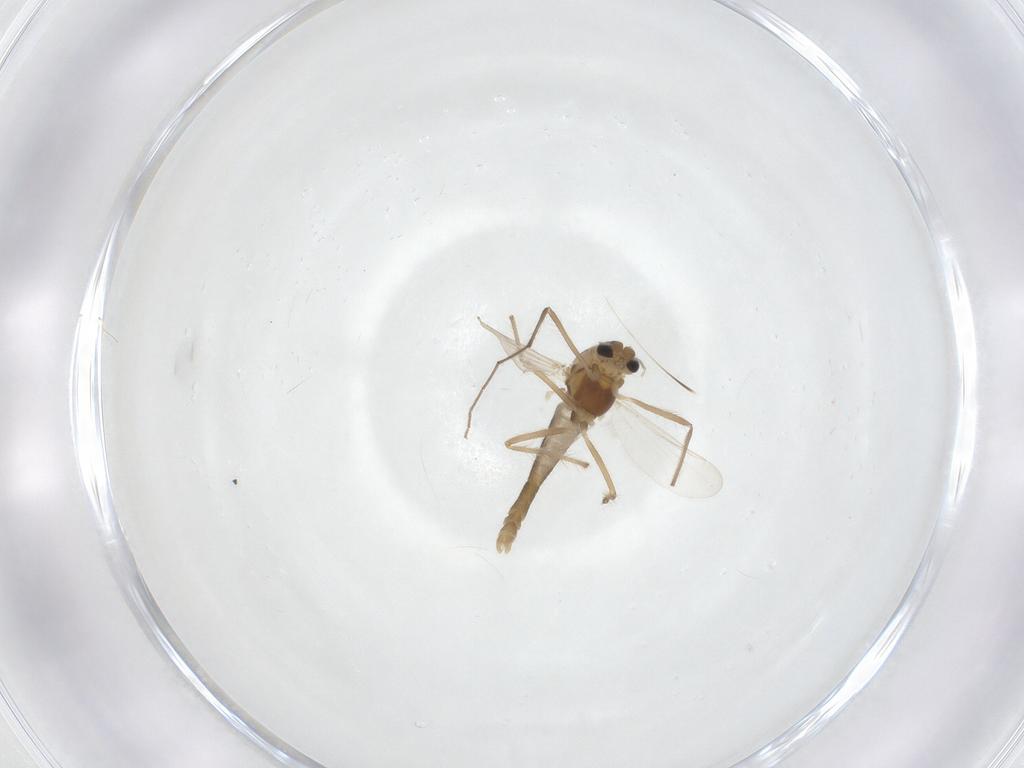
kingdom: Animalia
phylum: Arthropoda
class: Insecta
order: Diptera
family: Chironomidae
